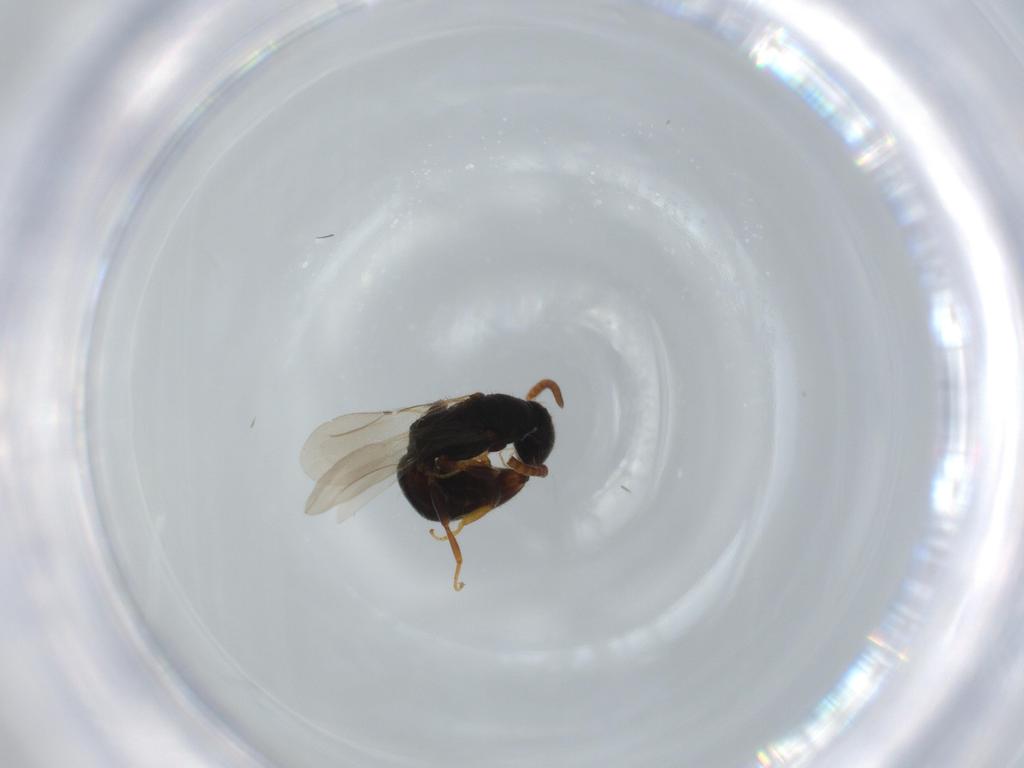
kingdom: Animalia
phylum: Arthropoda
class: Insecta
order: Hymenoptera
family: Bethylidae
